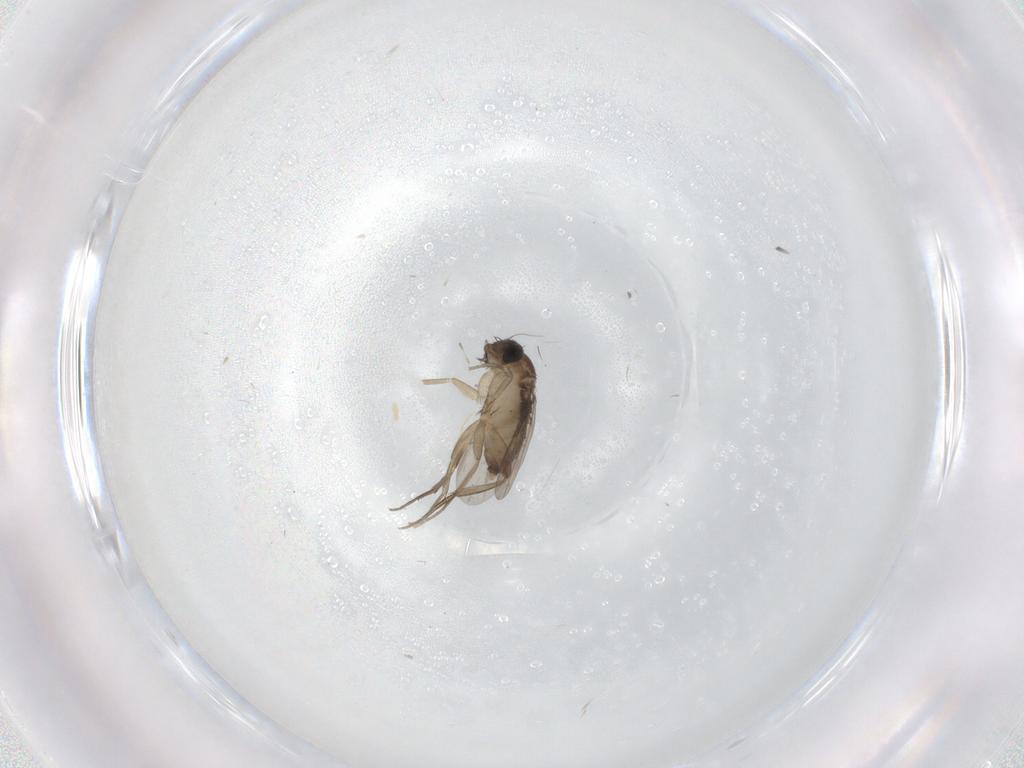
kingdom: Animalia
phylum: Arthropoda
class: Insecta
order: Diptera
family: Phoridae
